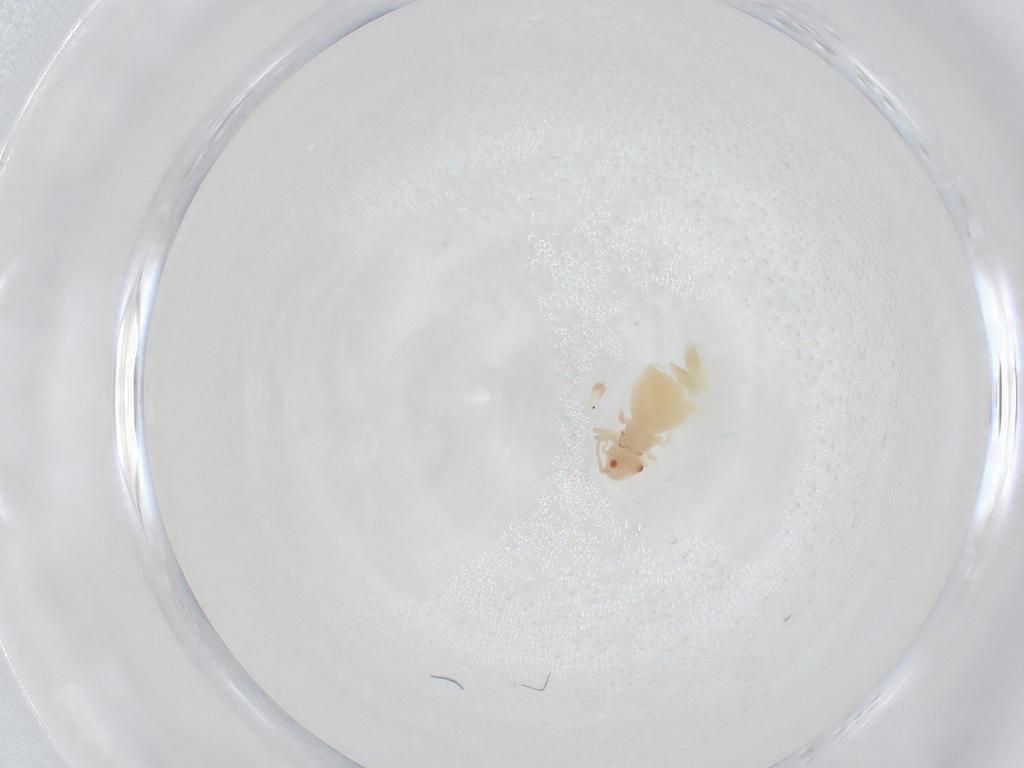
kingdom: Animalia
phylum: Arthropoda
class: Insecta
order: Psocodea
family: Caeciliusidae
